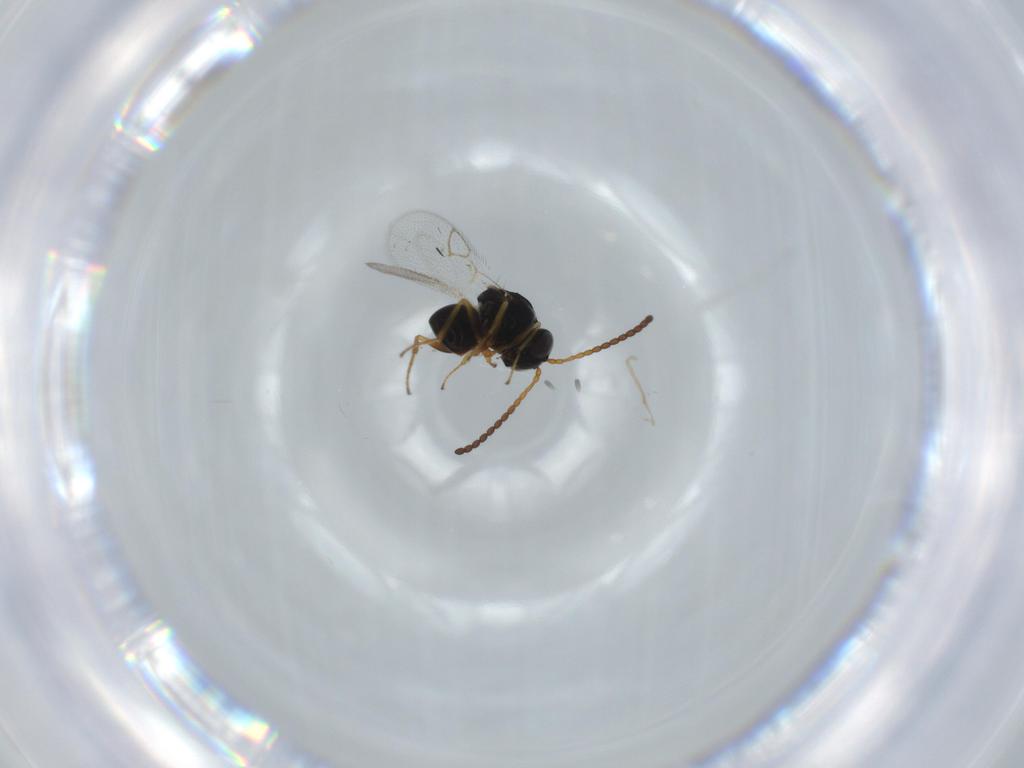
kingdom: Animalia
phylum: Arthropoda
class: Insecta
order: Hymenoptera
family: Figitidae
